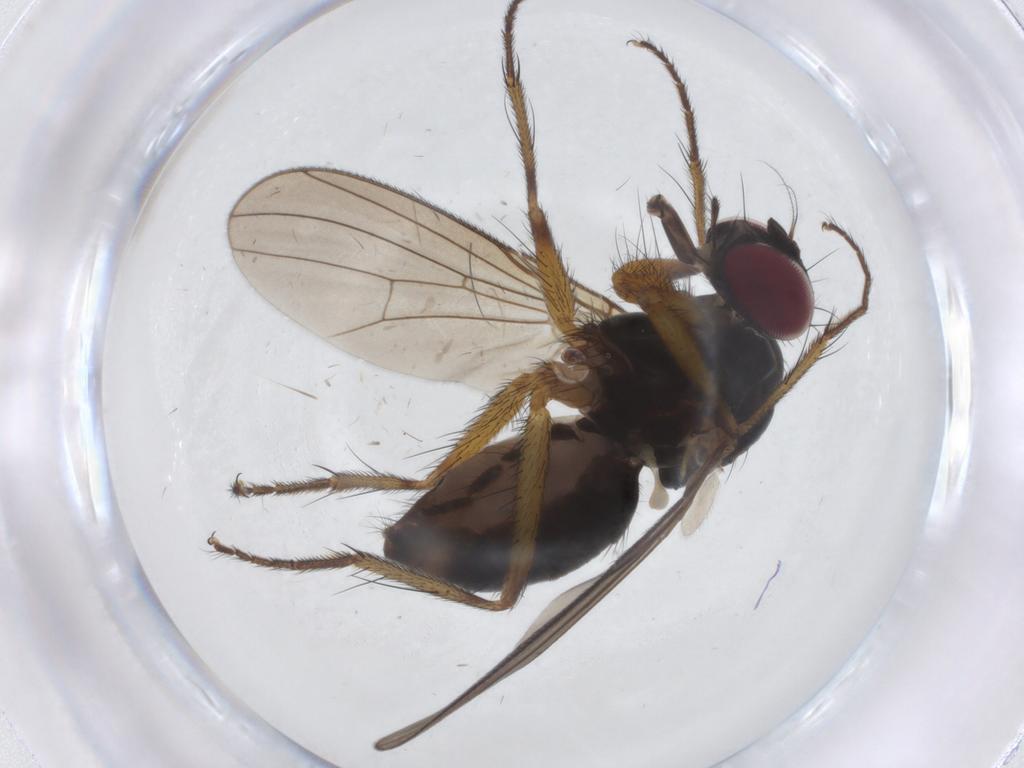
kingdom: Animalia
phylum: Arthropoda
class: Insecta
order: Diptera
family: Anthomyiidae
